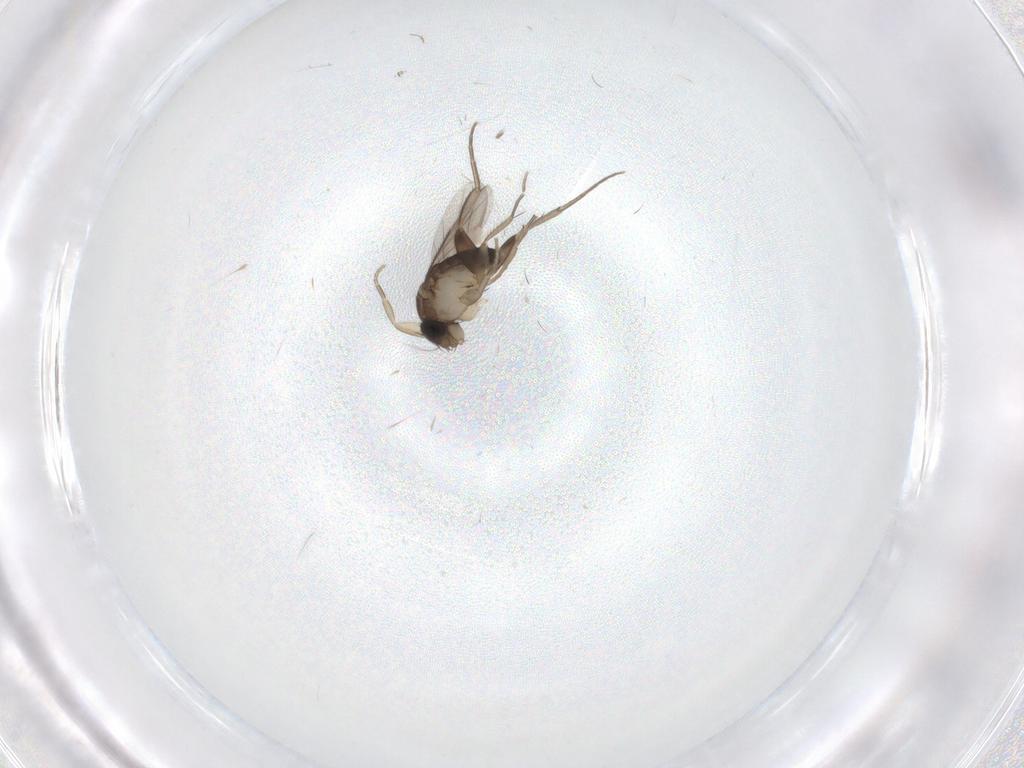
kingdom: Animalia
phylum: Arthropoda
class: Insecta
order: Diptera
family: Phoridae
